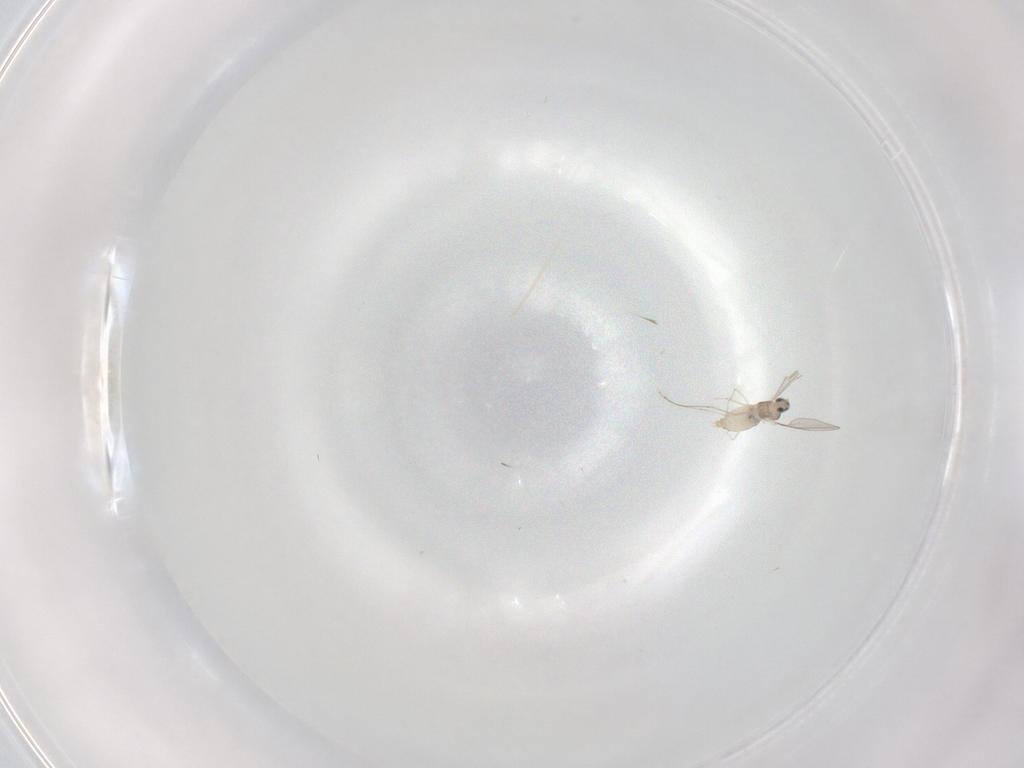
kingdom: Animalia
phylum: Arthropoda
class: Insecta
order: Diptera
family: Cecidomyiidae
